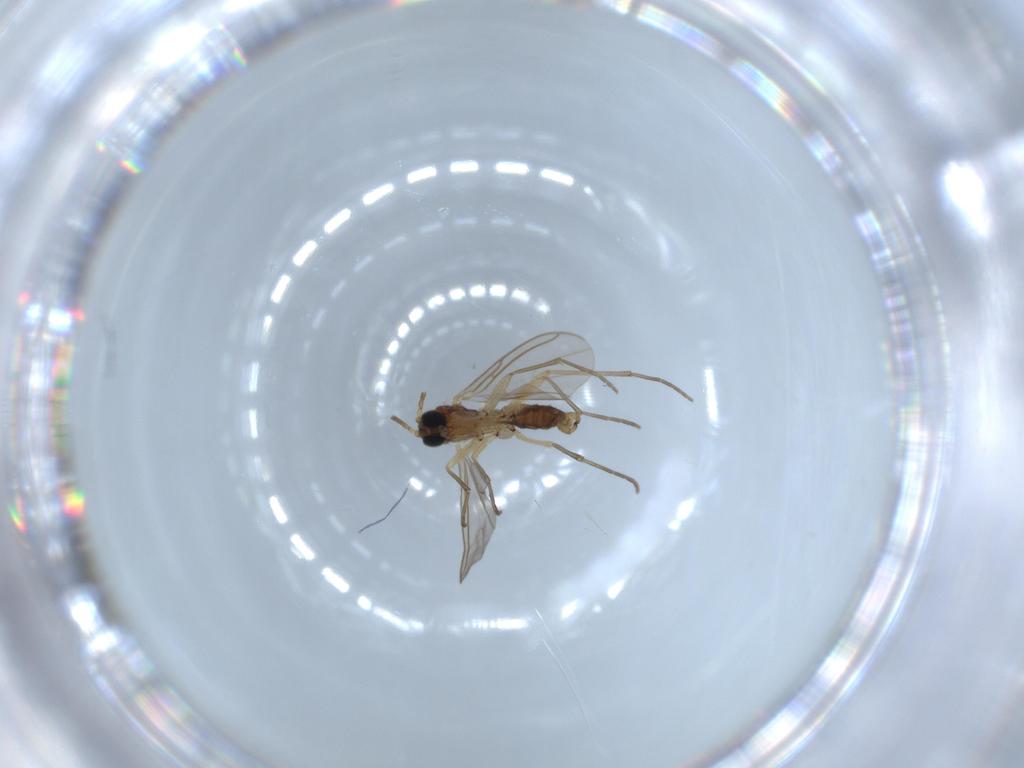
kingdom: Animalia
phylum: Arthropoda
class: Insecta
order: Diptera
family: Sciaridae
